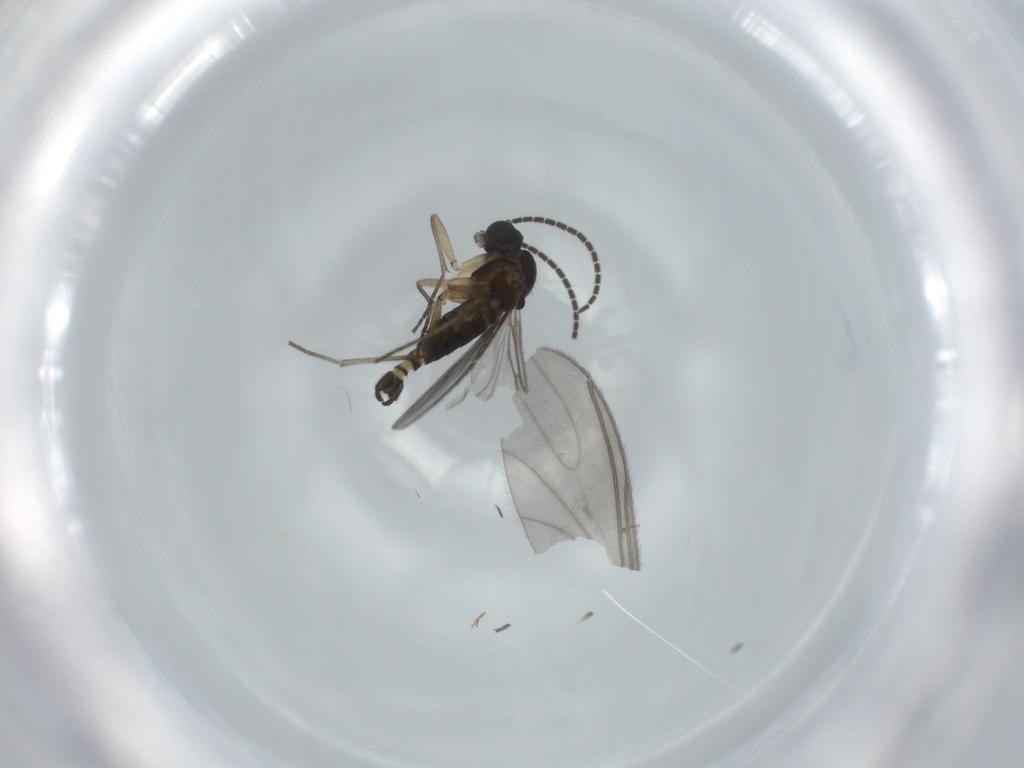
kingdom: Animalia
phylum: Arthropoda
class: Insecta
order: Diptera
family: Sciaridae
